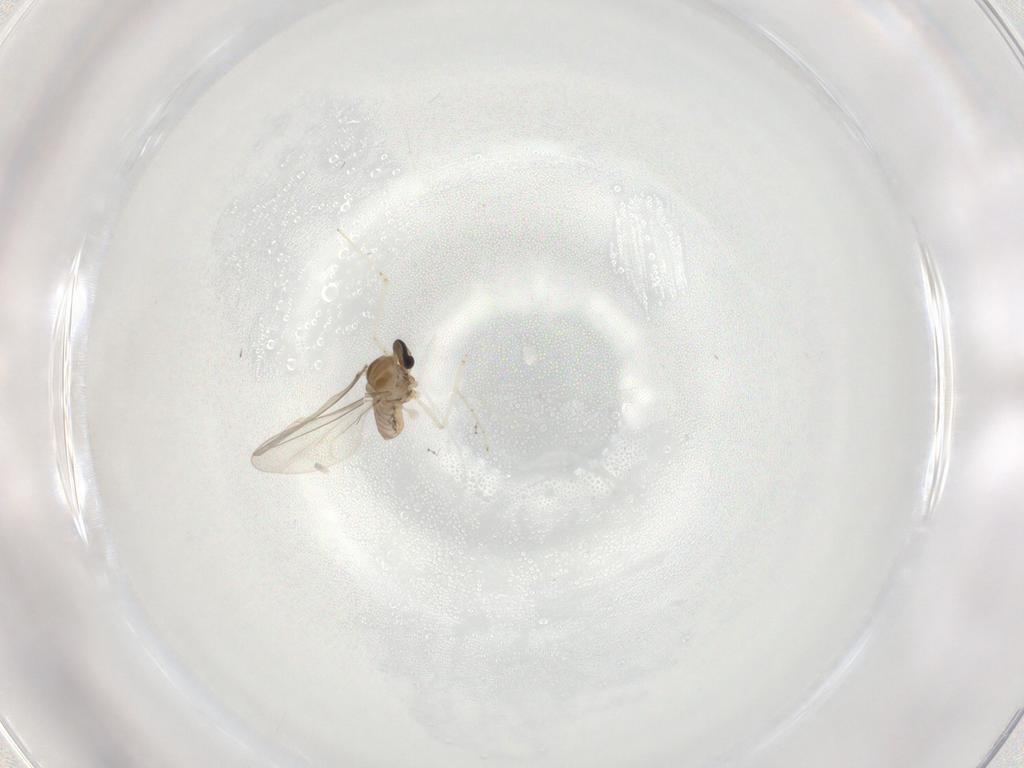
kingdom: Animalia
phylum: Arthropoda
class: Insecta
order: Diptera
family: Cecidomyiidae
